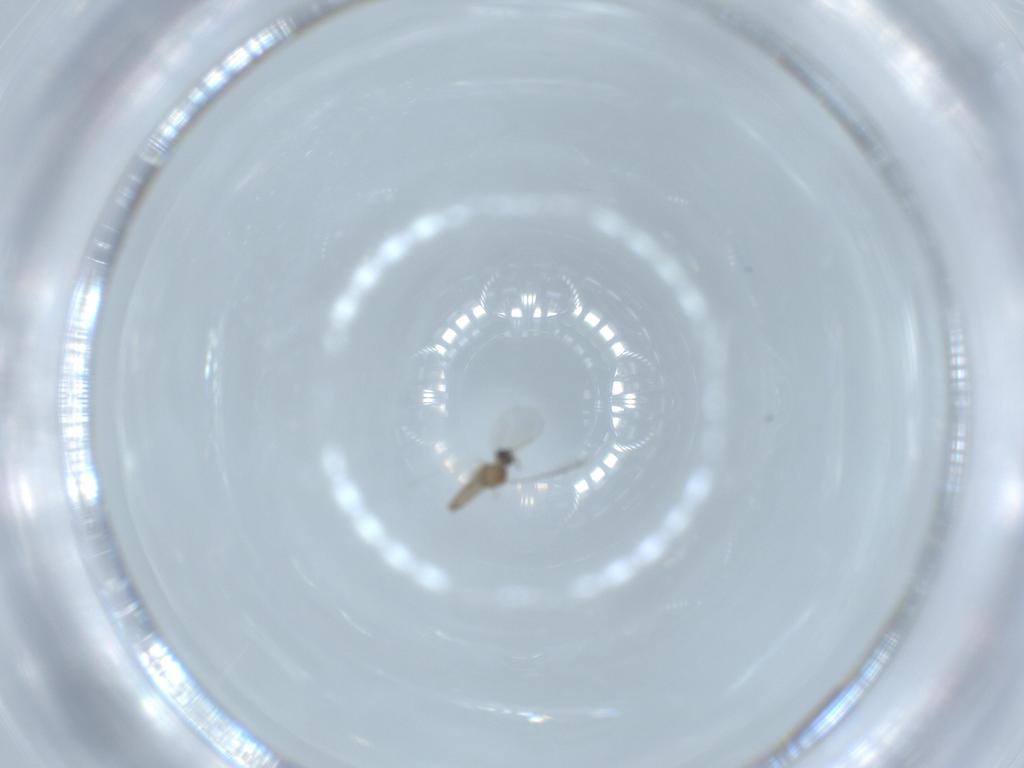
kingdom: Animalia
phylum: Arthropoda
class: Insecta
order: Diptera
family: Cecidomyiidae
